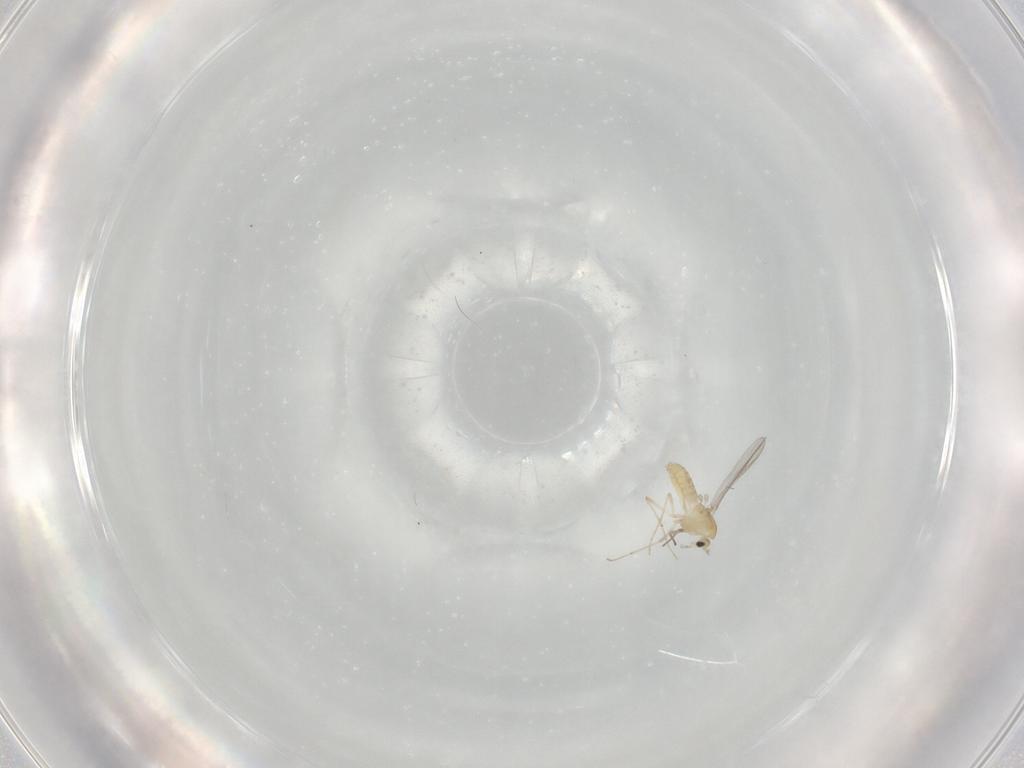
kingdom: Animalia
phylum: Arthropoda
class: Insecta
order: Diptera
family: Chironomidae
